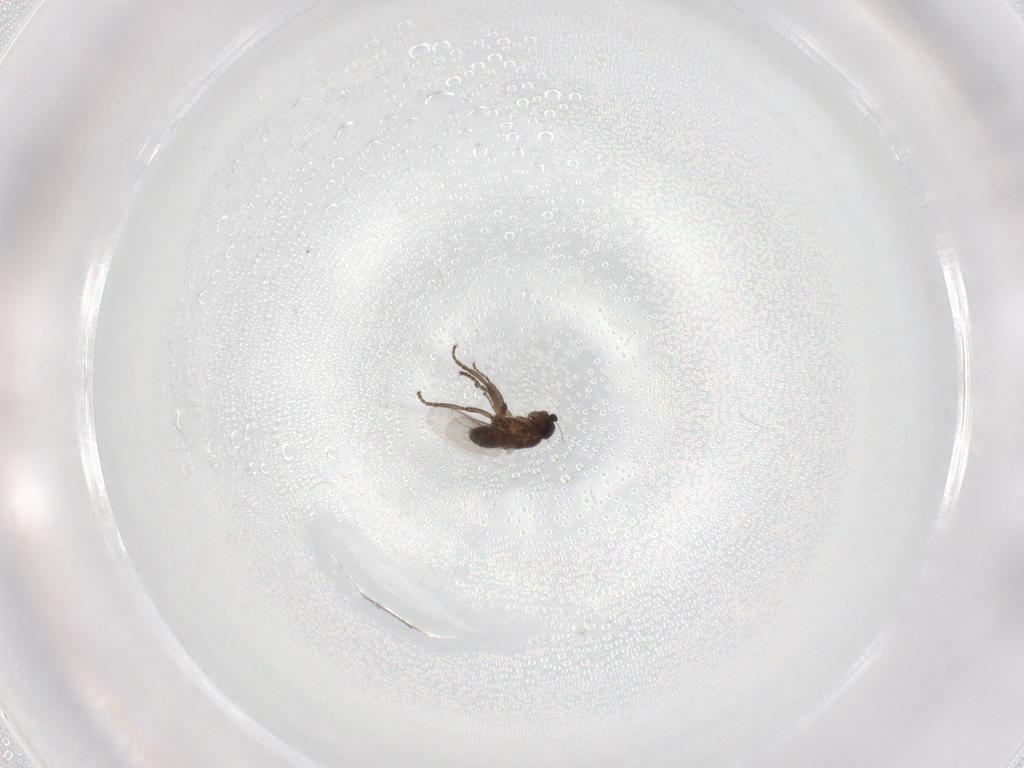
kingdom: Animalia
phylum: Arthropoda
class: Insecta
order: Diptera
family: Sphaeroceridae
